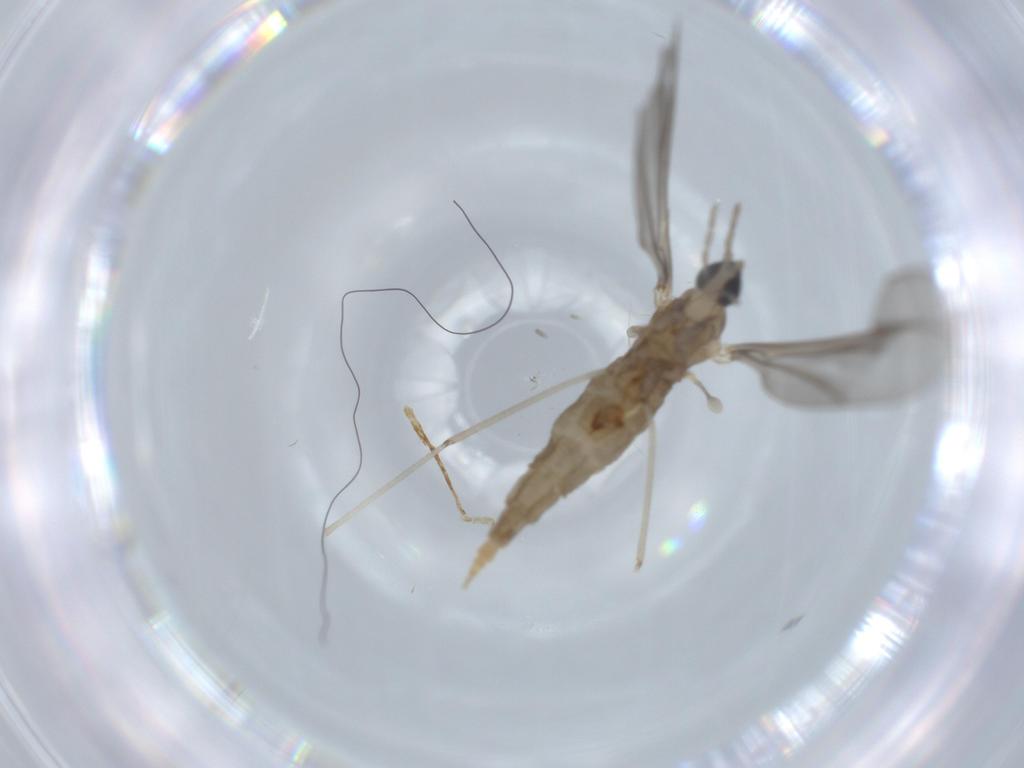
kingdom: Animalia
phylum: Arthropoda
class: Insecta
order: Diptera
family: Cecidomyiidae
